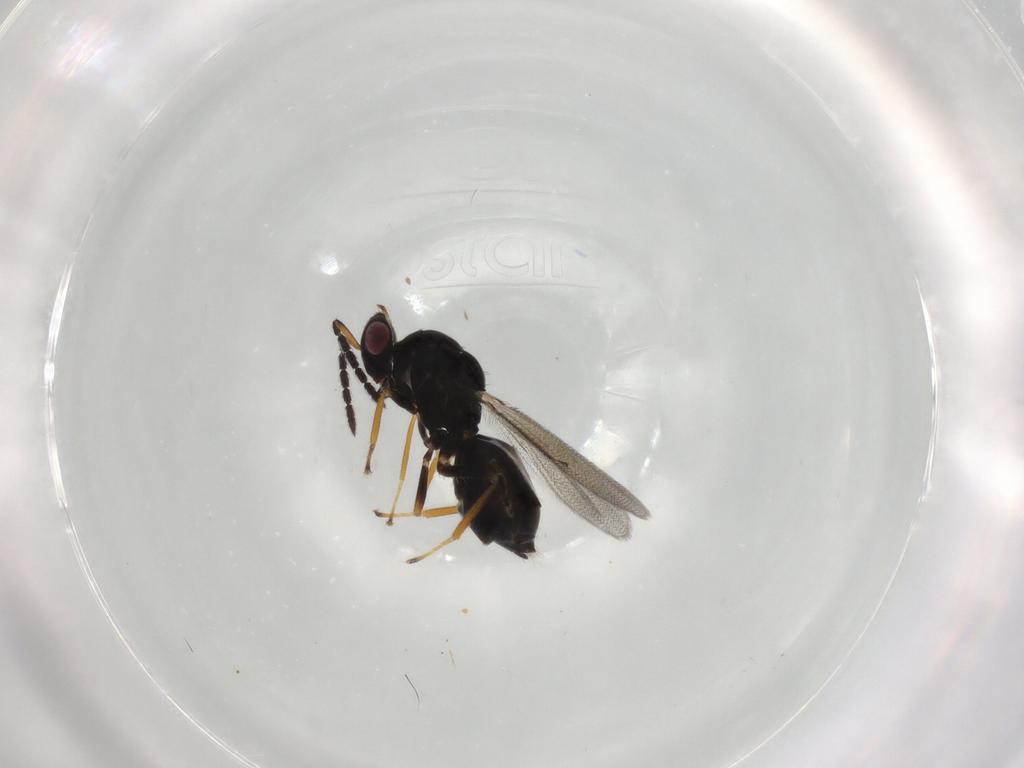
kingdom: Animalia
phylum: Arthropoda
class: Insecta
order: Hymenoptera
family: Eulophidae
